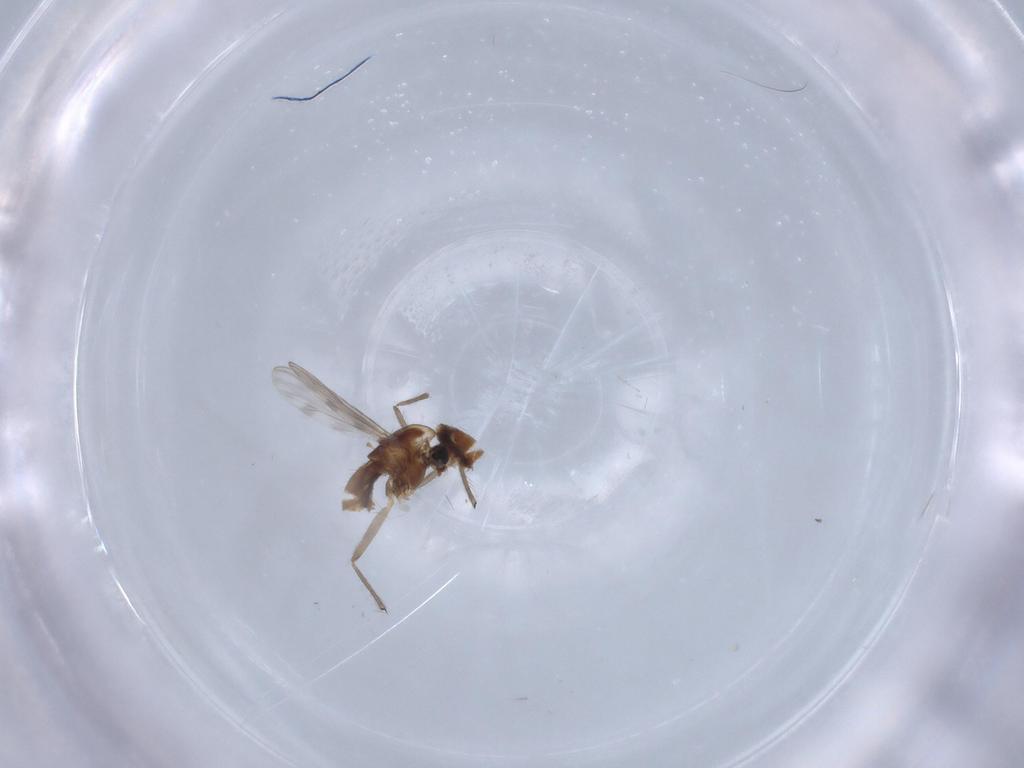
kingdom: Animalia
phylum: Arthropoda
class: Insecta
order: Diptera
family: Chironomidae
